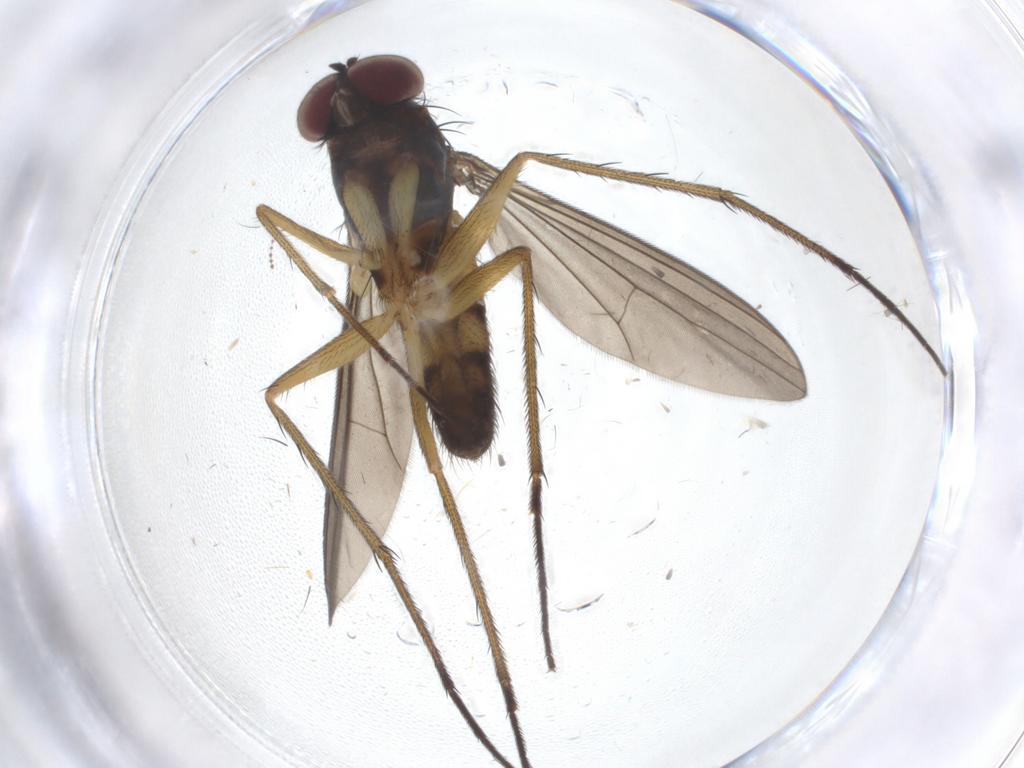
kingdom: Animalia
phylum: Arthropoda
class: Insecta
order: Diptera
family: Dolichopodidae
